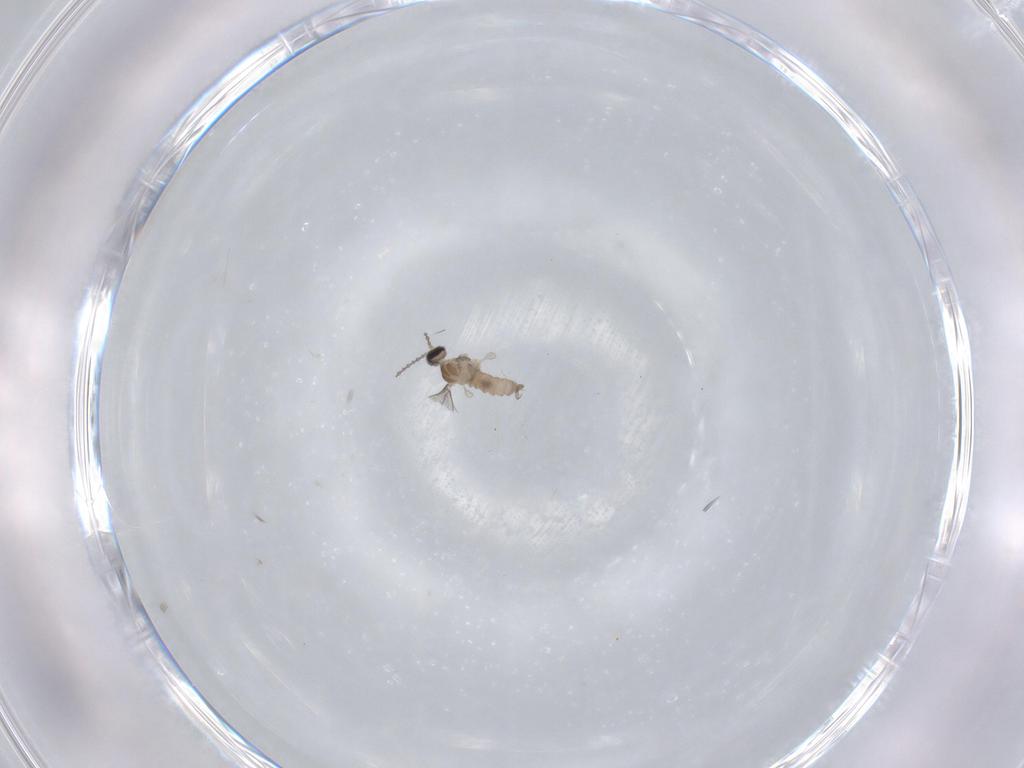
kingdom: Animalia
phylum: Arthropoda
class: Insecta
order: Diptera
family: Cecidomyiidae
